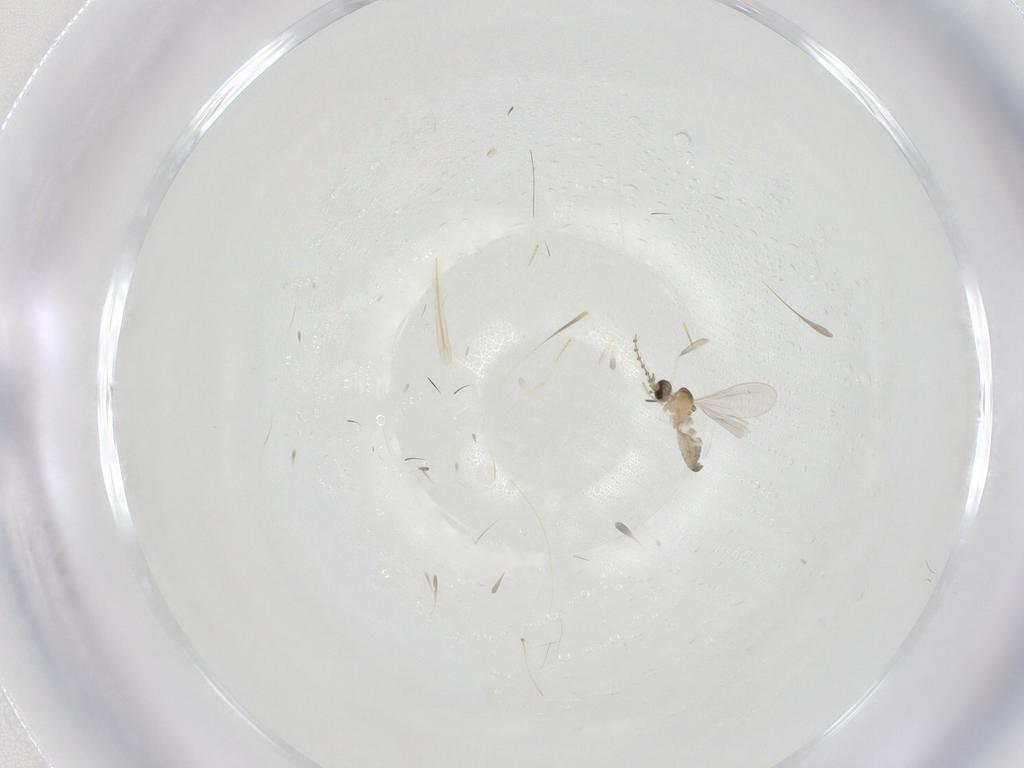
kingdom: Animalia
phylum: Arthropoda
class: Insecta
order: Diptera
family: Cecidomyiidae
